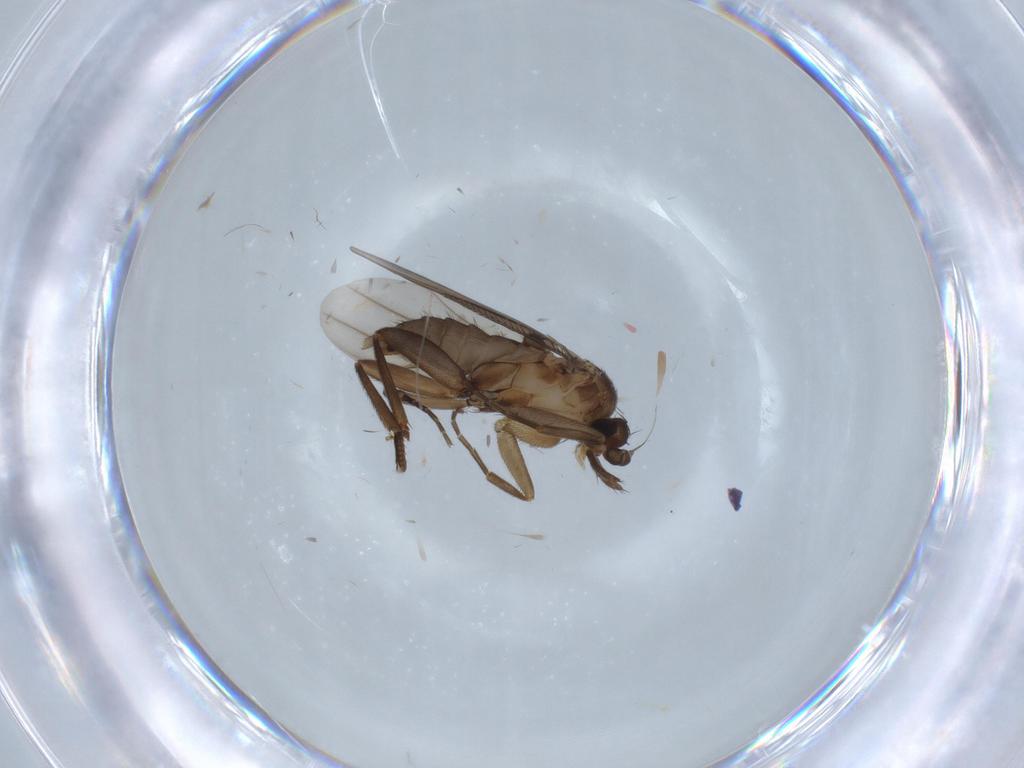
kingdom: Animalia
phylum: Arthropoda
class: Insecta
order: Diptera
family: Phoridae
